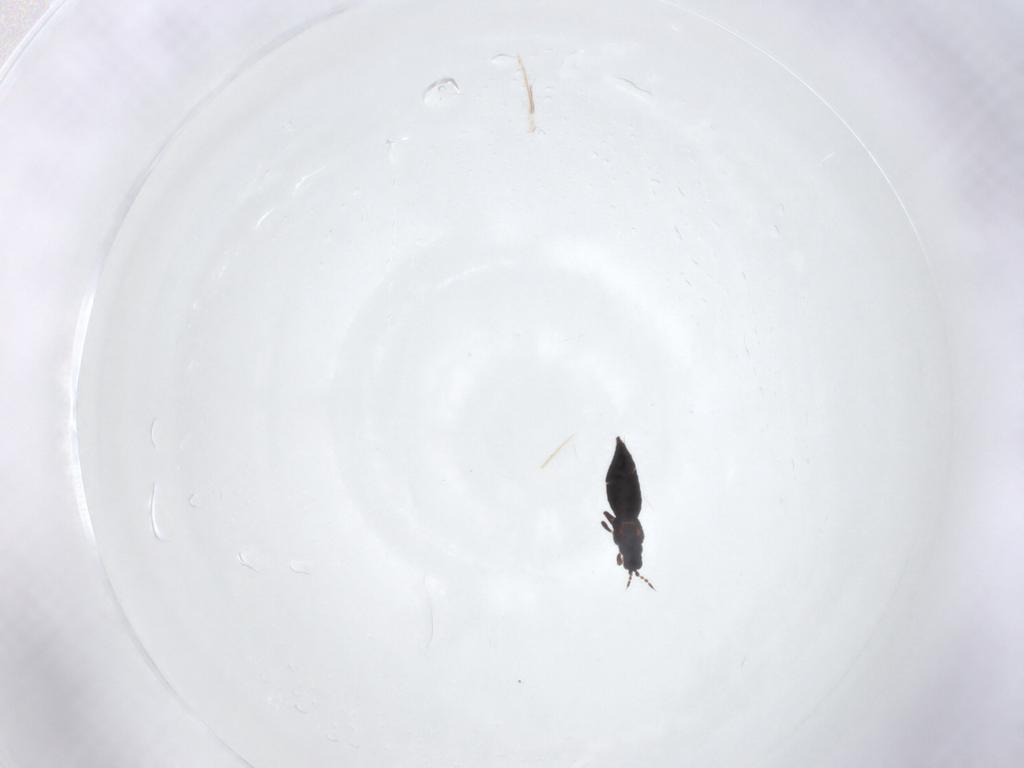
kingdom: Animalia
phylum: Arthropoda
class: Insecta
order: Thysanoptera
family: Thripidae
